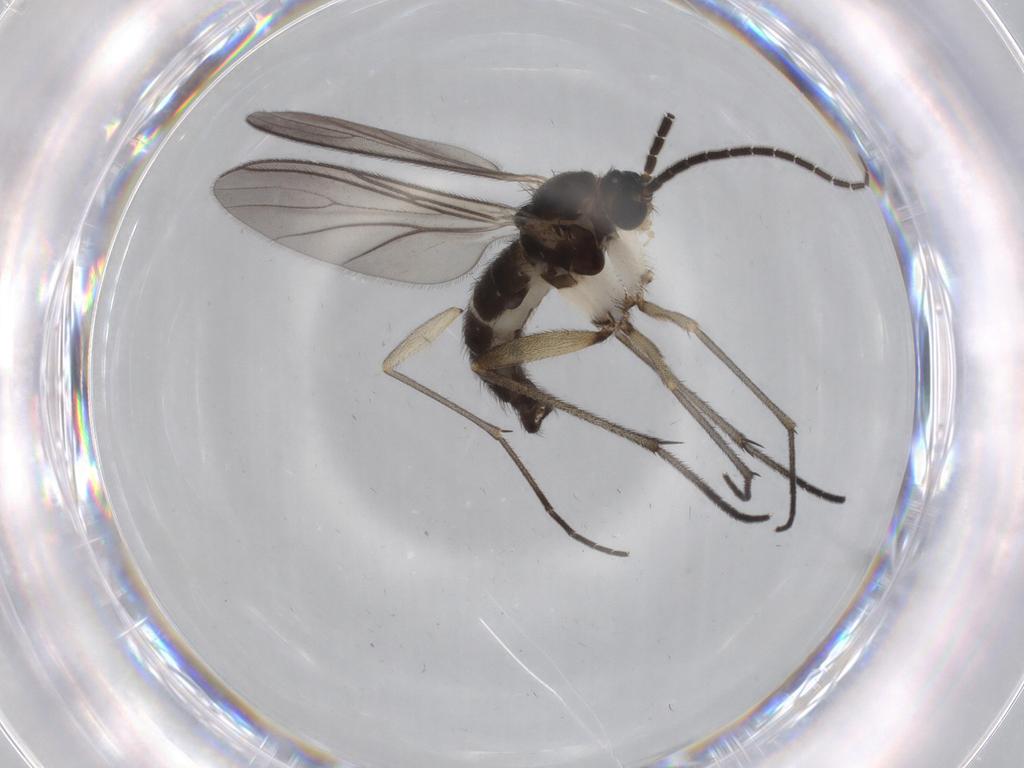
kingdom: Animalia
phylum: Arthropoda
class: Insecta
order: Diptera
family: Sciaridae
